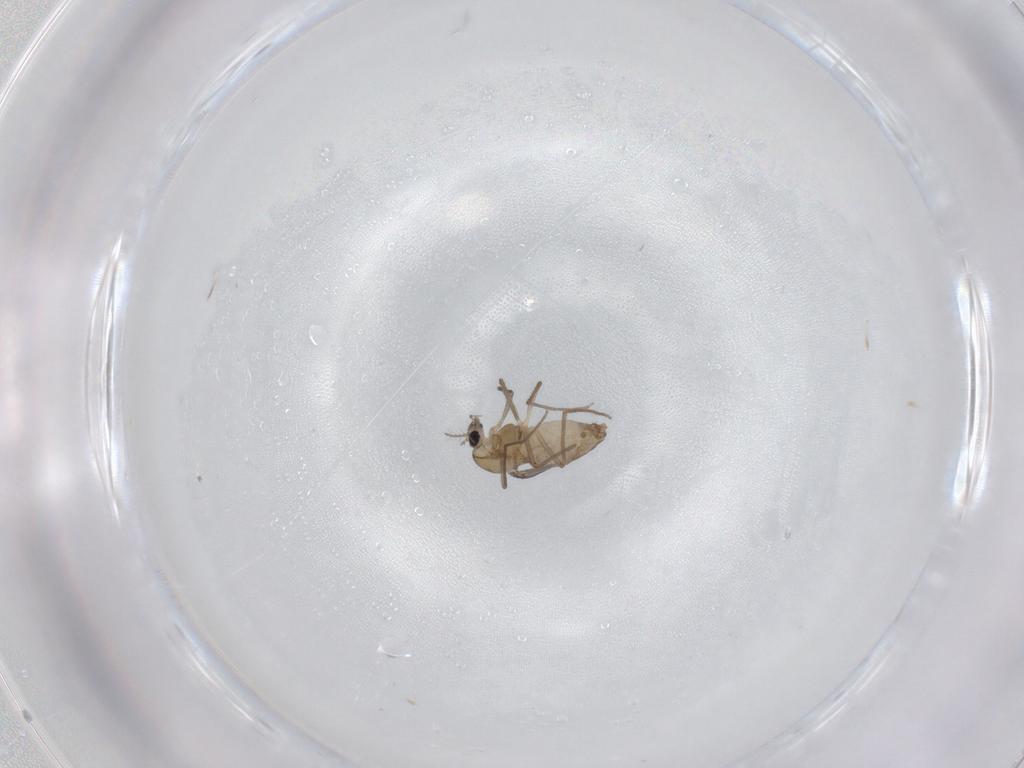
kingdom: Animalia
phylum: Arthropoda
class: Insecta
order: Diptera
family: Chironomidae
